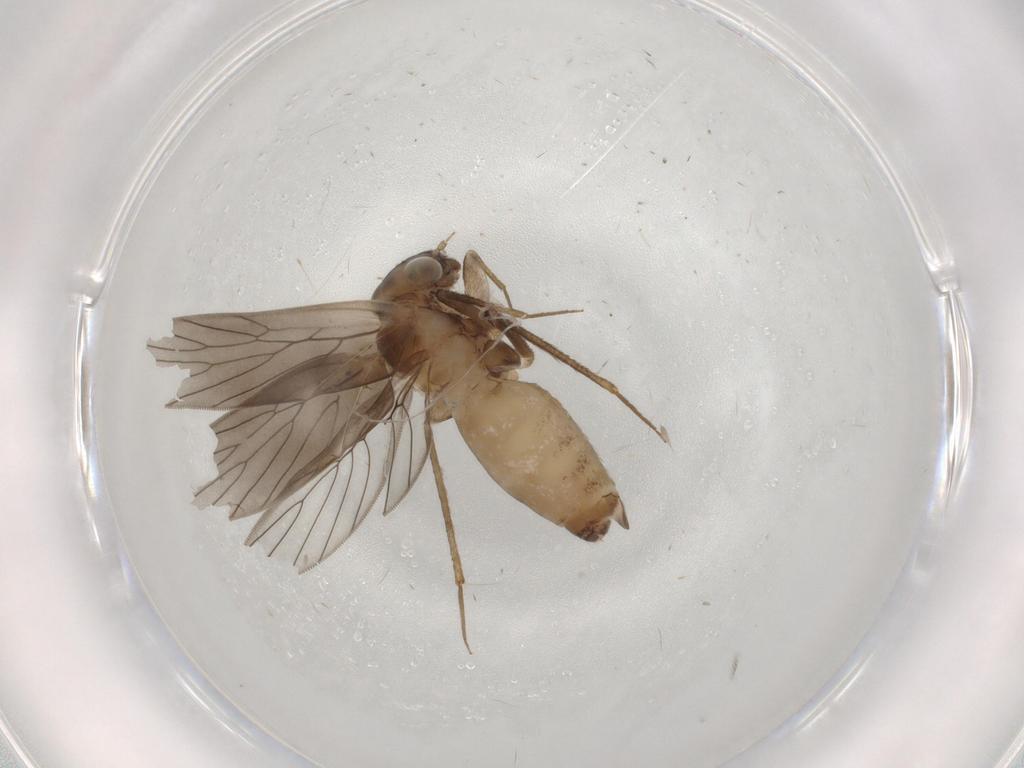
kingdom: Animalia
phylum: Arthropoda
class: Insecta
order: Psocodea
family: Lepidopsocidae
